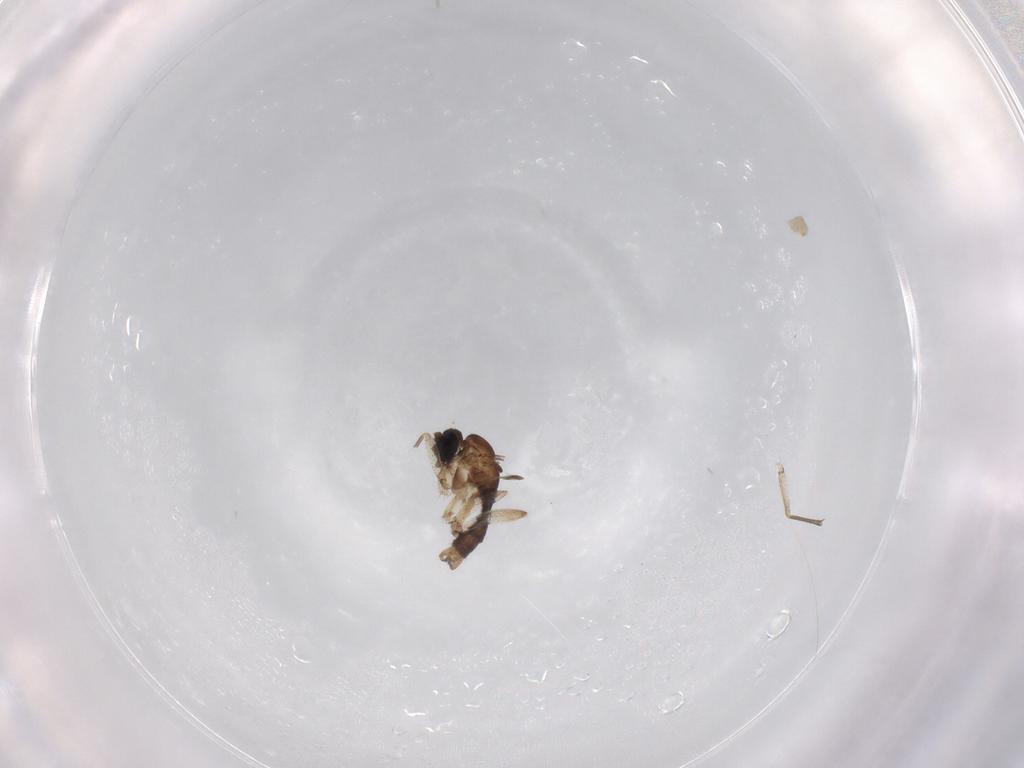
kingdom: Animalia
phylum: Arthropoda
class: Insecta
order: Diptera
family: Sciaridae
